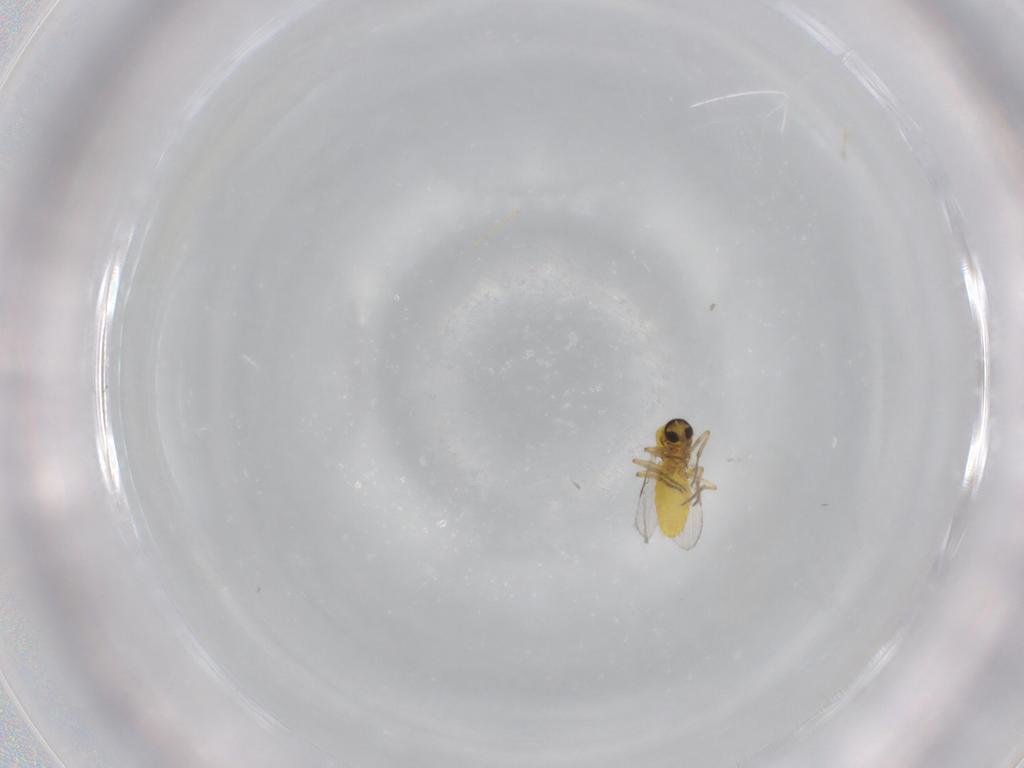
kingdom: Animalia
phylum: Arthropoda
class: Insecta
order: Diptera
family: Ceratopogonidae
